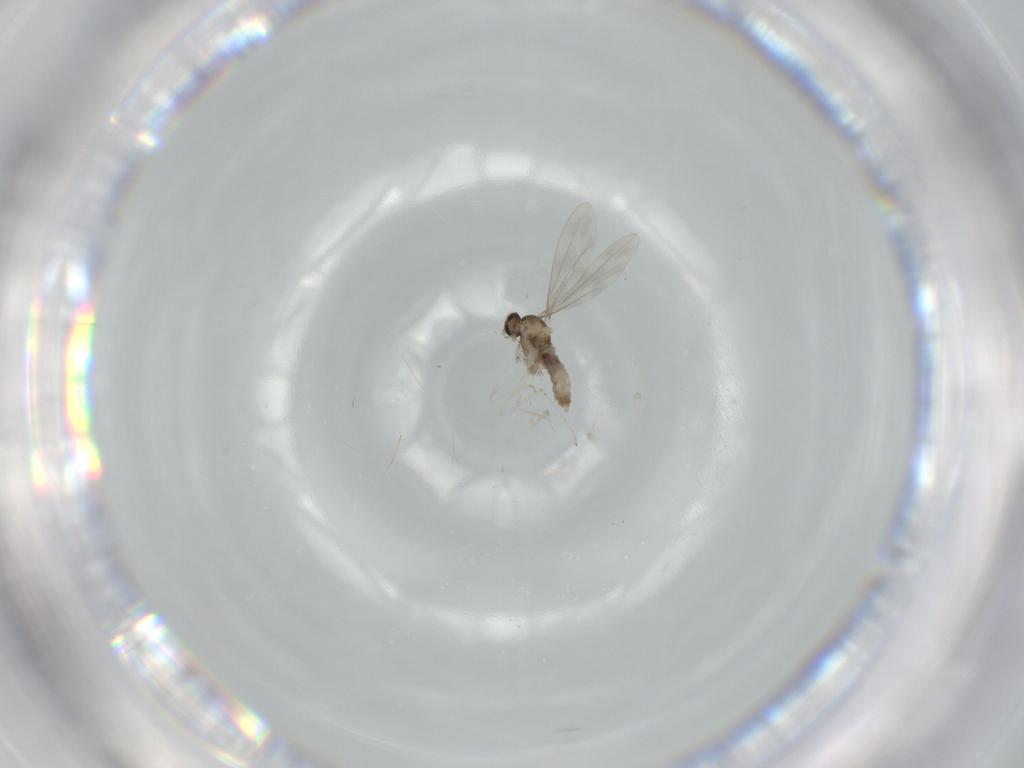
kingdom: Animalia
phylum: Arthropoda
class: Insecta
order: Diptera
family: Cecidomyiidae
